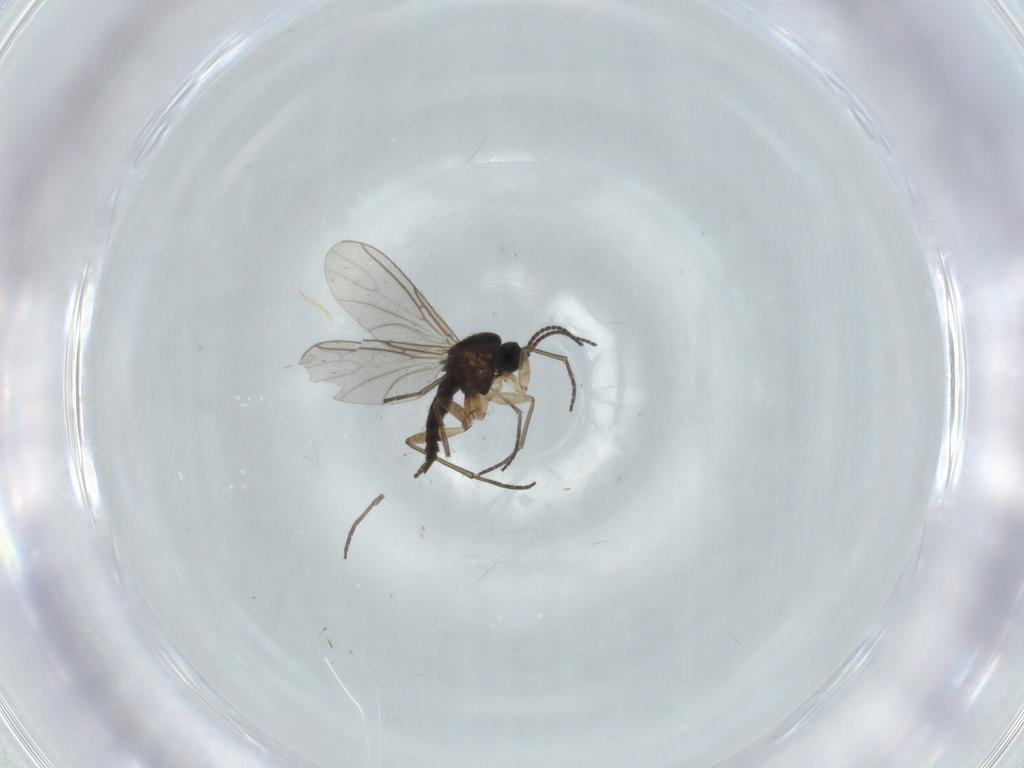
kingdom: Animalia
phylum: Arthropoda
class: Insecta
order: Diptera
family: Sciaridae
